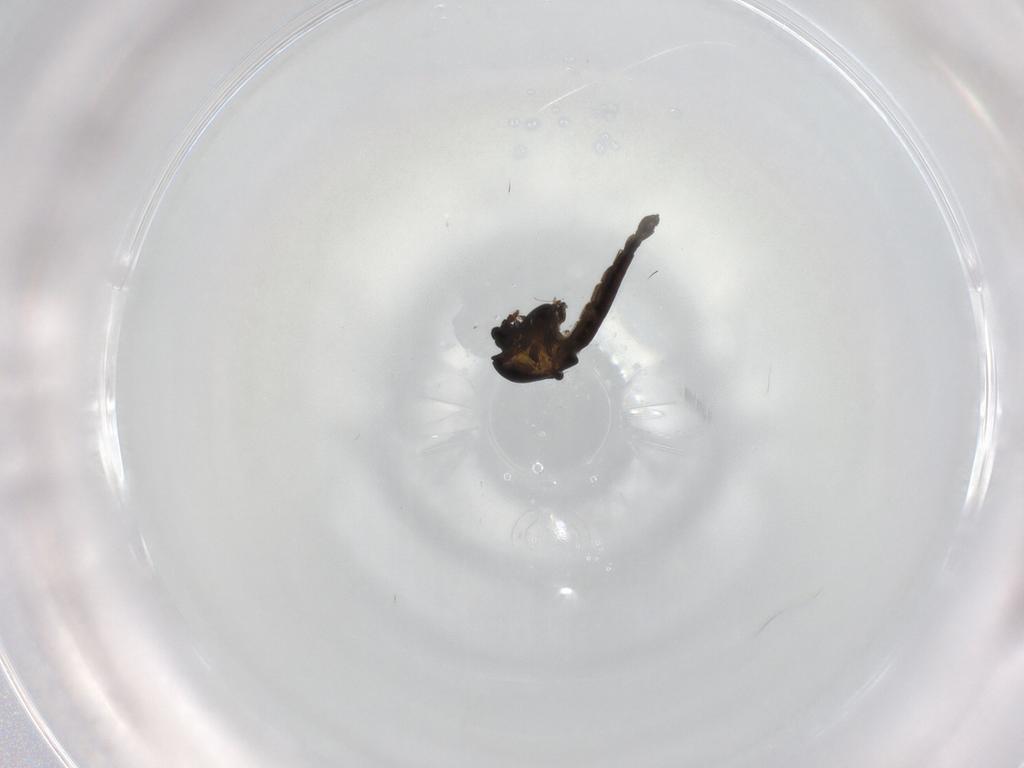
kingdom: Animalia
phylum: Arthropoda
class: Insecta
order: Diptera
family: Chironomidae
